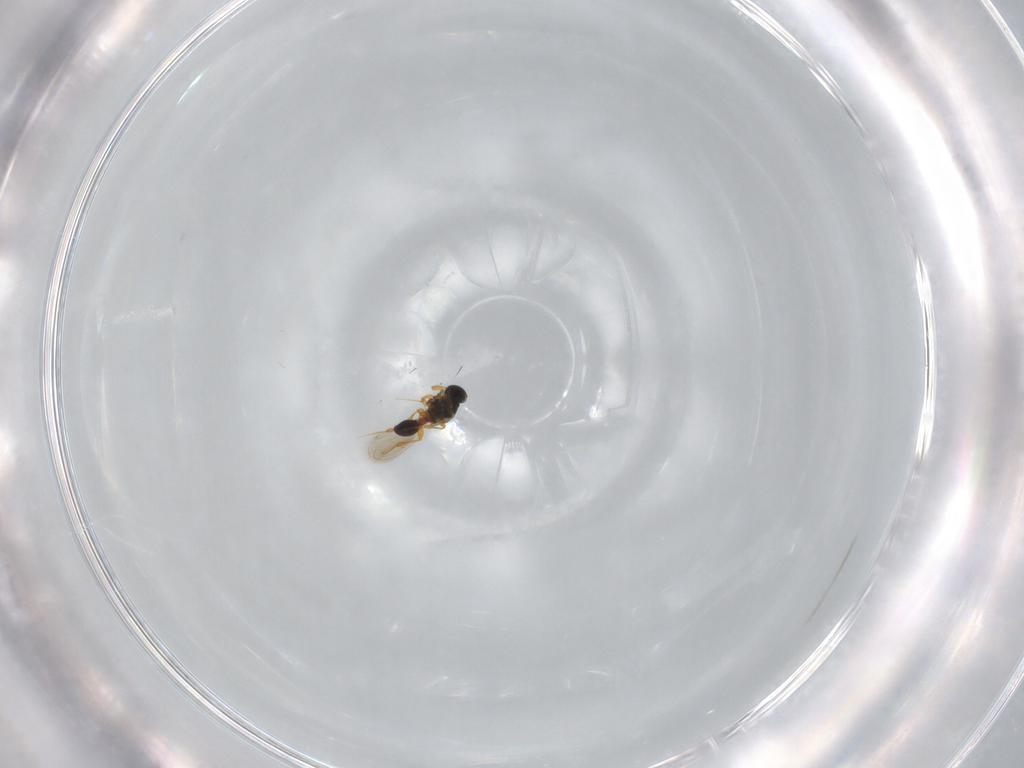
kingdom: Animalia
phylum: Arthropoda
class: Insecta
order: Hymenoptera
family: Platygastridae
